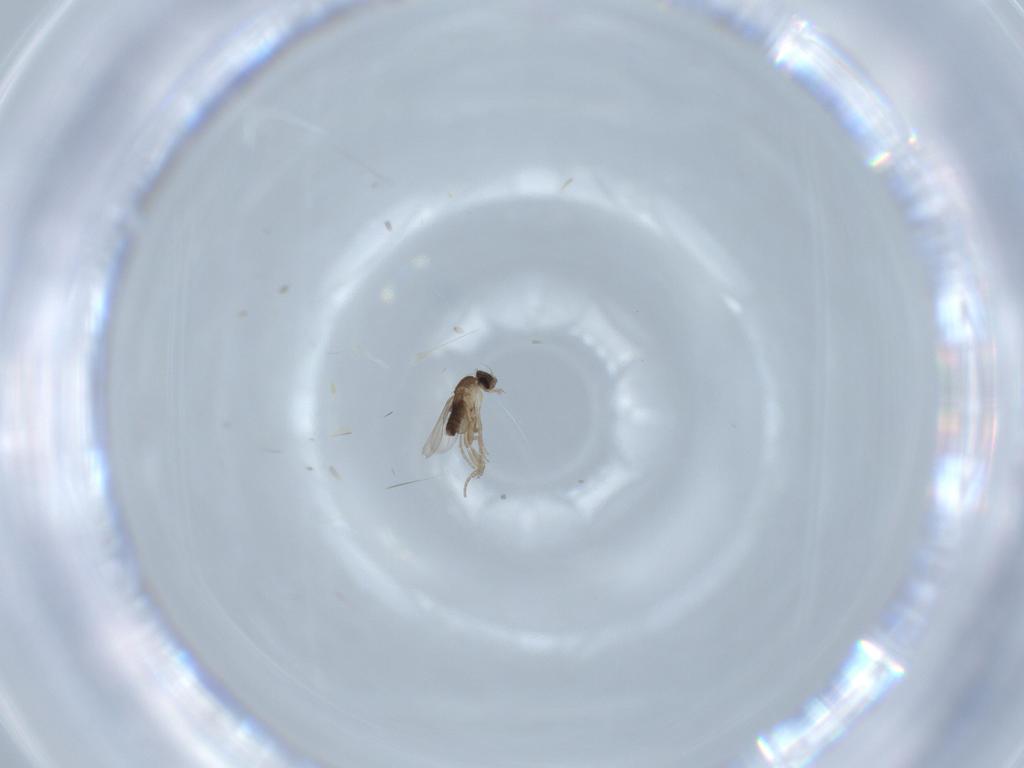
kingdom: Animalia
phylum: Arthropoda
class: Insecta
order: Diptera
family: Phoridae
